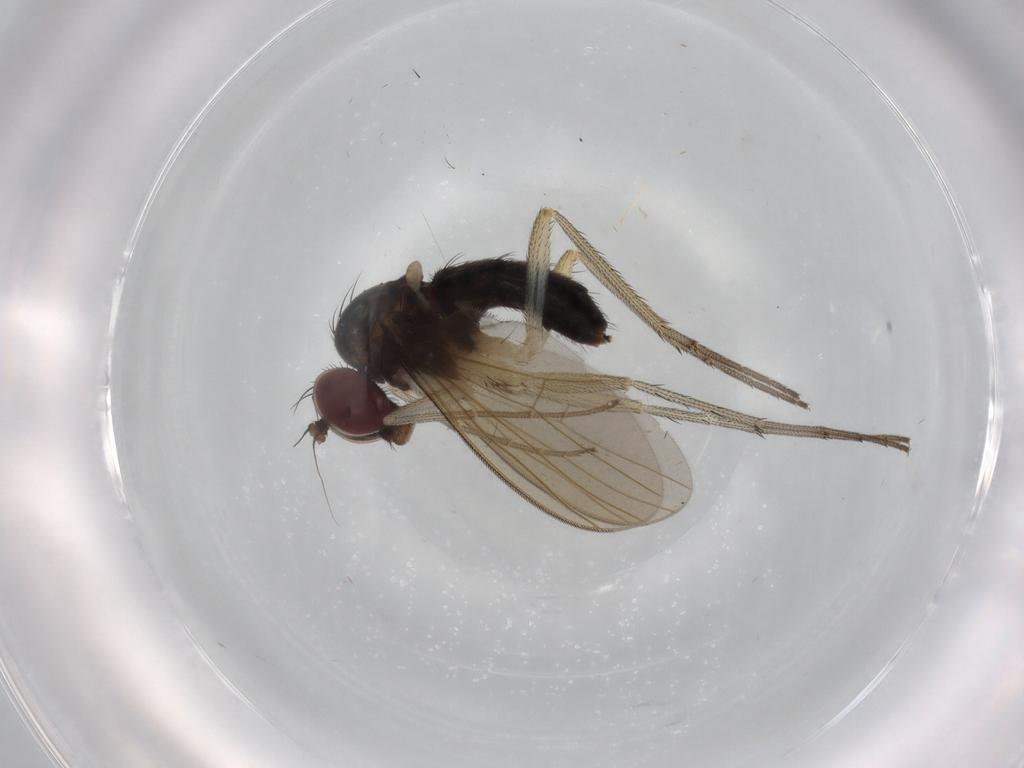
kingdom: Animalia
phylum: Arthropoda
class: Insecta
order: Diptera
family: Dolichopodidae
